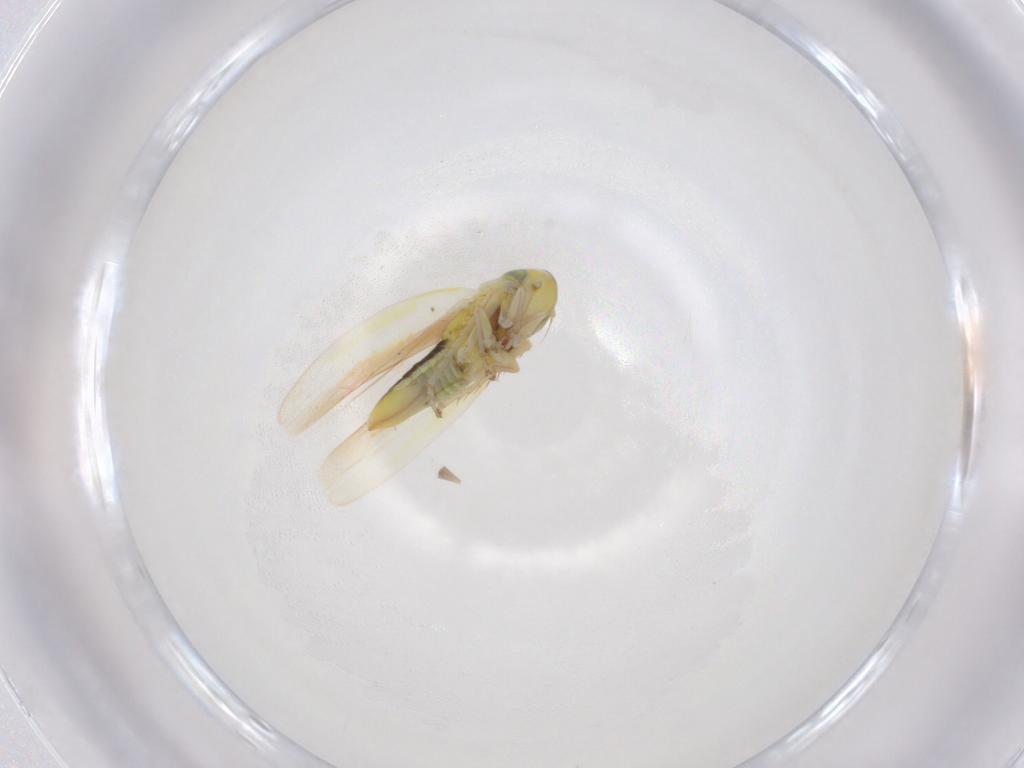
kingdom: Animalia
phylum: Arthropoda
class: Insecta
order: Hemiptera
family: Cicadellidae
